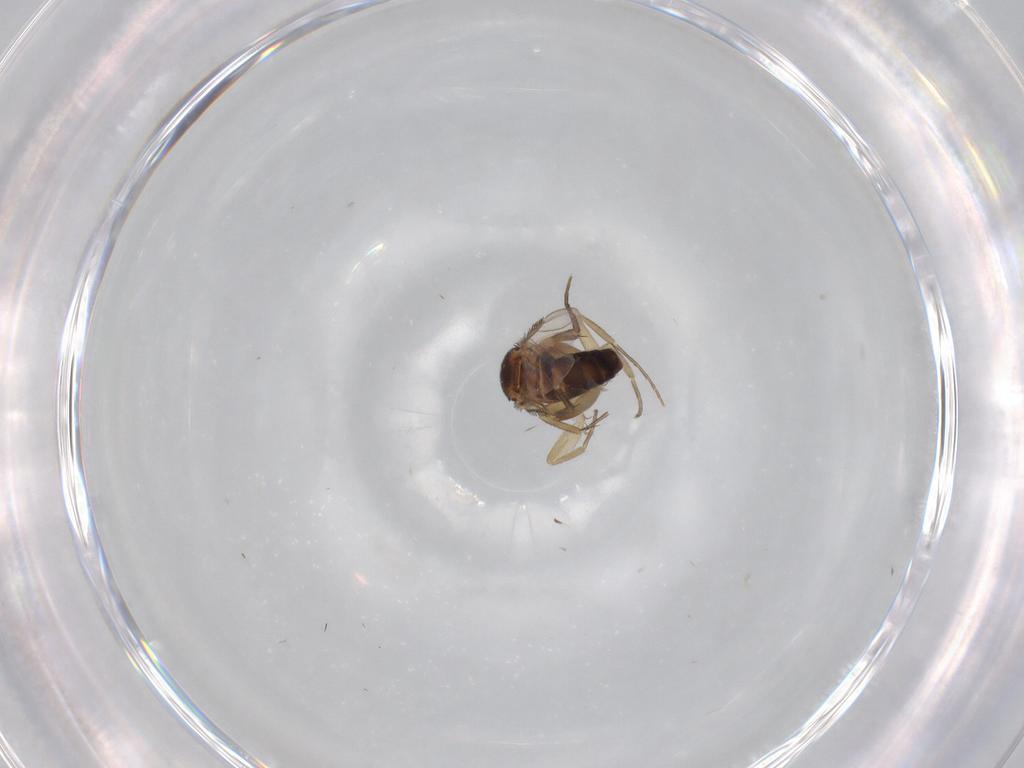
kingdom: Animalia
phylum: Arthropoda
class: Insecta
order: Diptera
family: Phoridae
